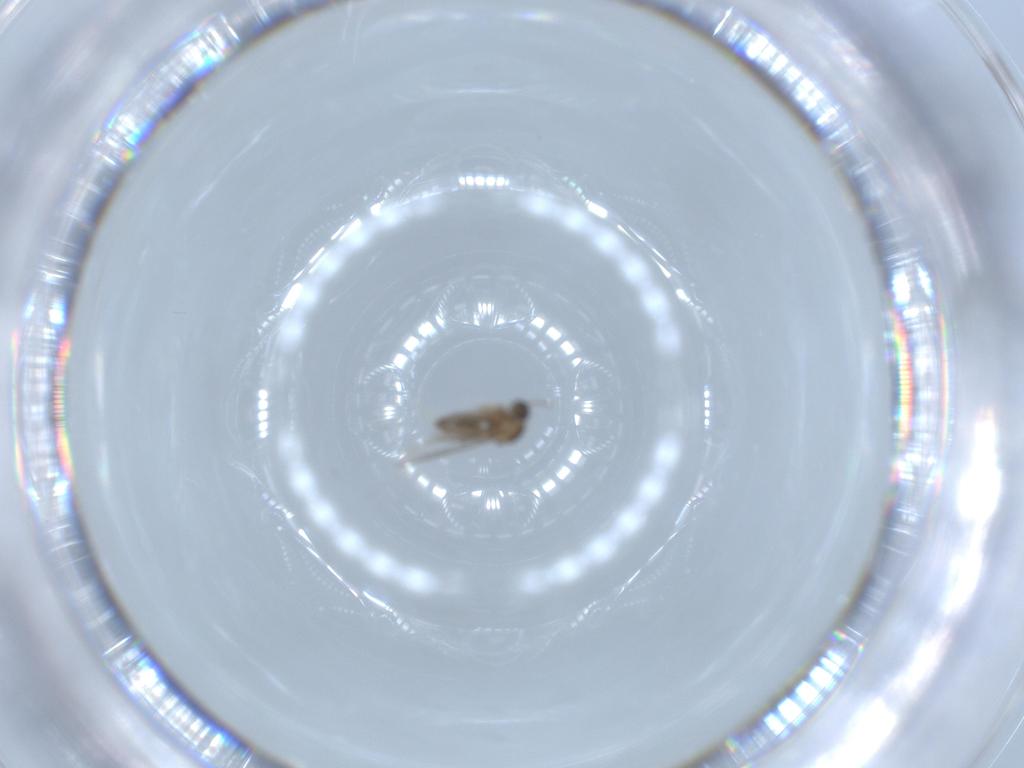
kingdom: Animalia
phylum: Arthropoda
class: Insecta
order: Diptera
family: Cecidomyiidae
